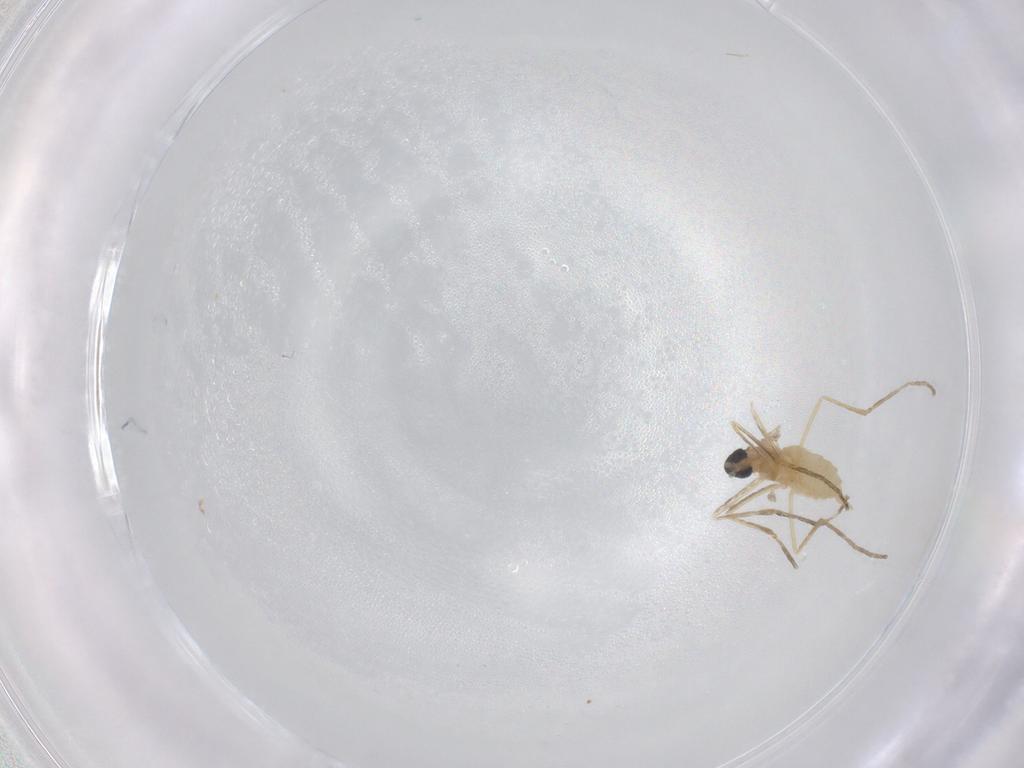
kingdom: Animalia
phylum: Arthropoda
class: Insecta
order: Diptera
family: Cecidomyiidae
